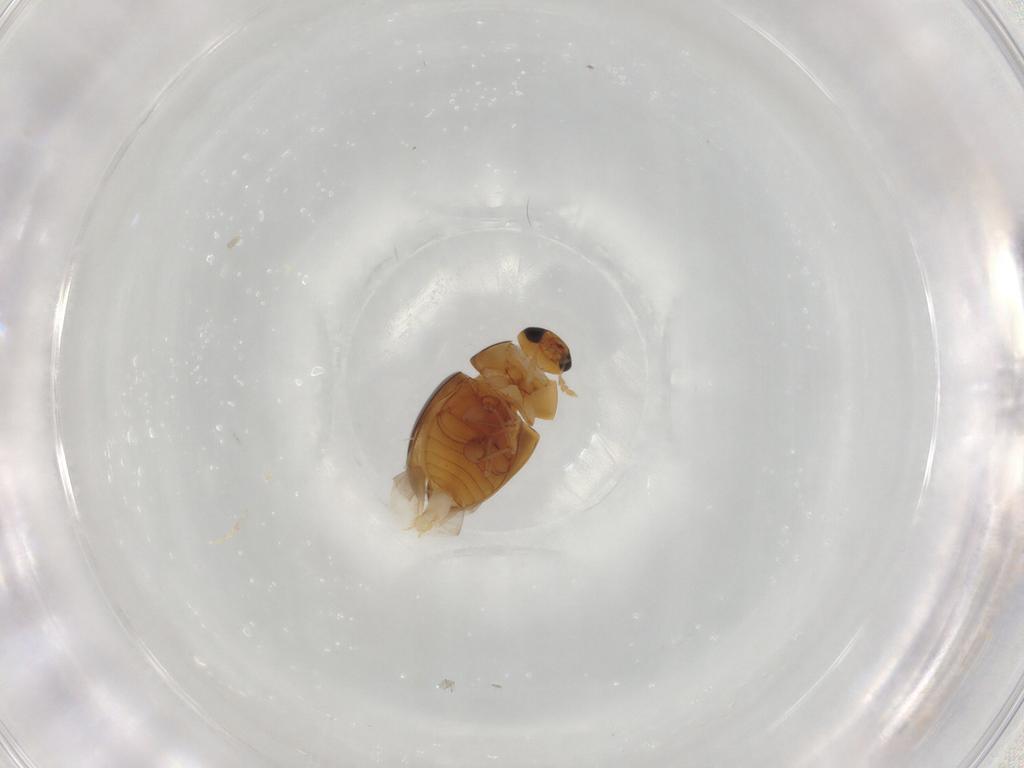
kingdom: Animalia
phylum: Arthropoda
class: Insecta
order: Coleoptera
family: Phalacridae
